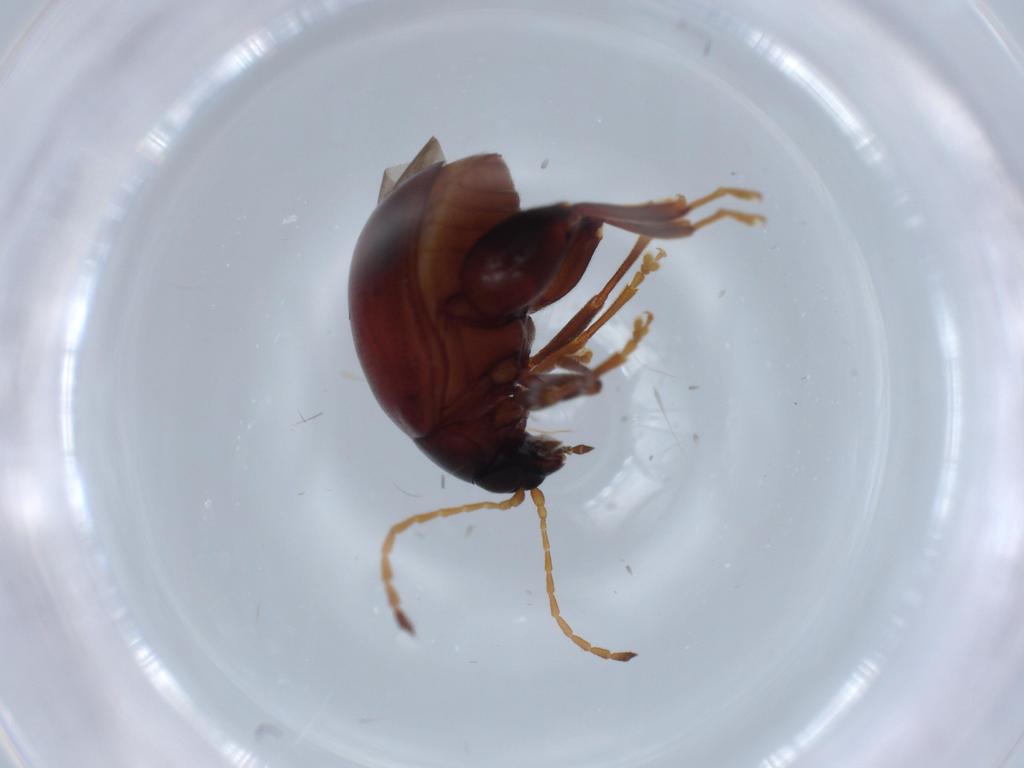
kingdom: Animalia
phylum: Arthropoda
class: Insecta
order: Coleoptera
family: Chrysomelidae
